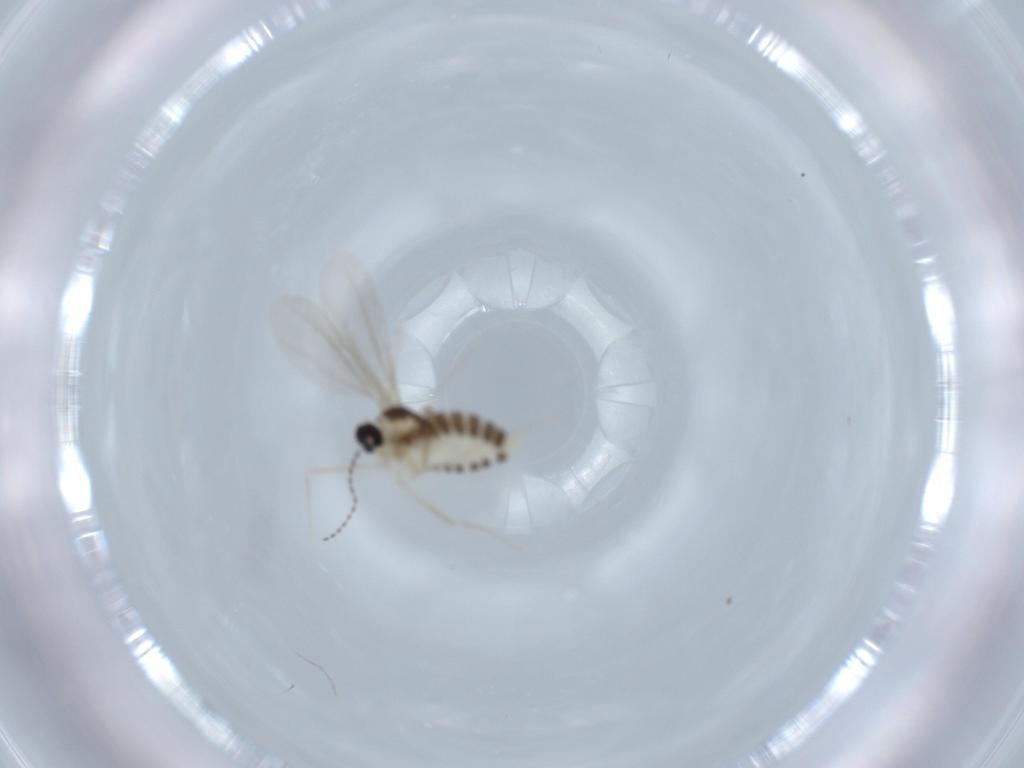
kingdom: Animalia
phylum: Arthropoda
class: Insecta
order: Diptera
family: Cecidomyiidae
